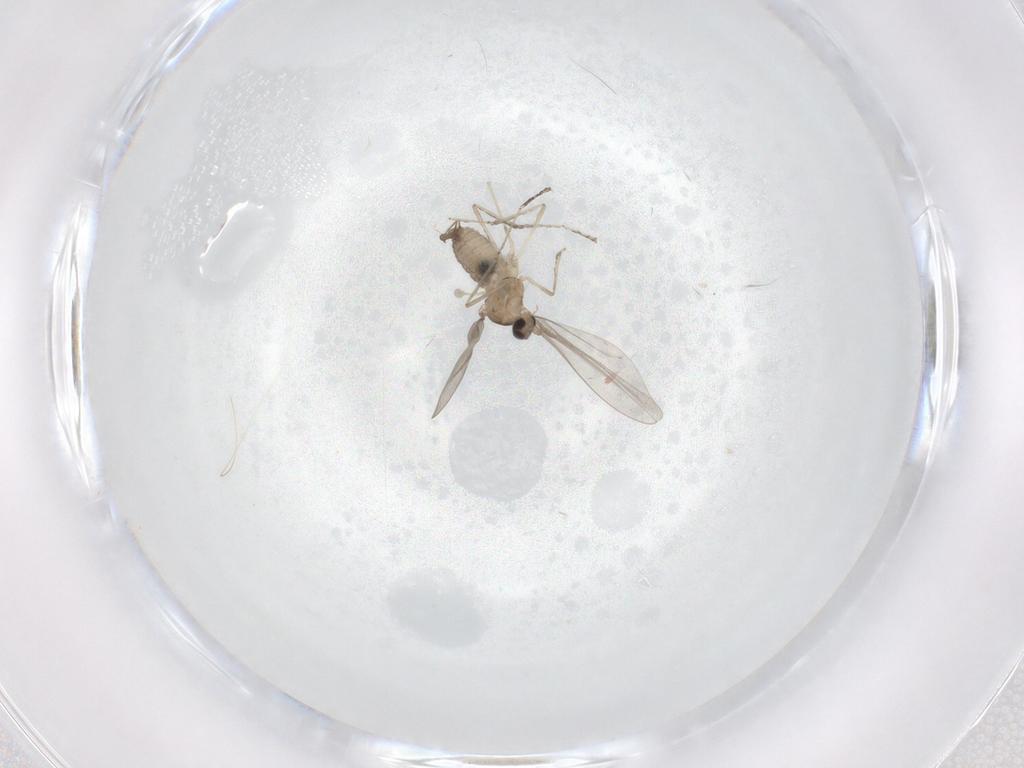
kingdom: Animalia
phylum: Arthropoda
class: Insecta
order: Diptera
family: Cecidomyiidae
